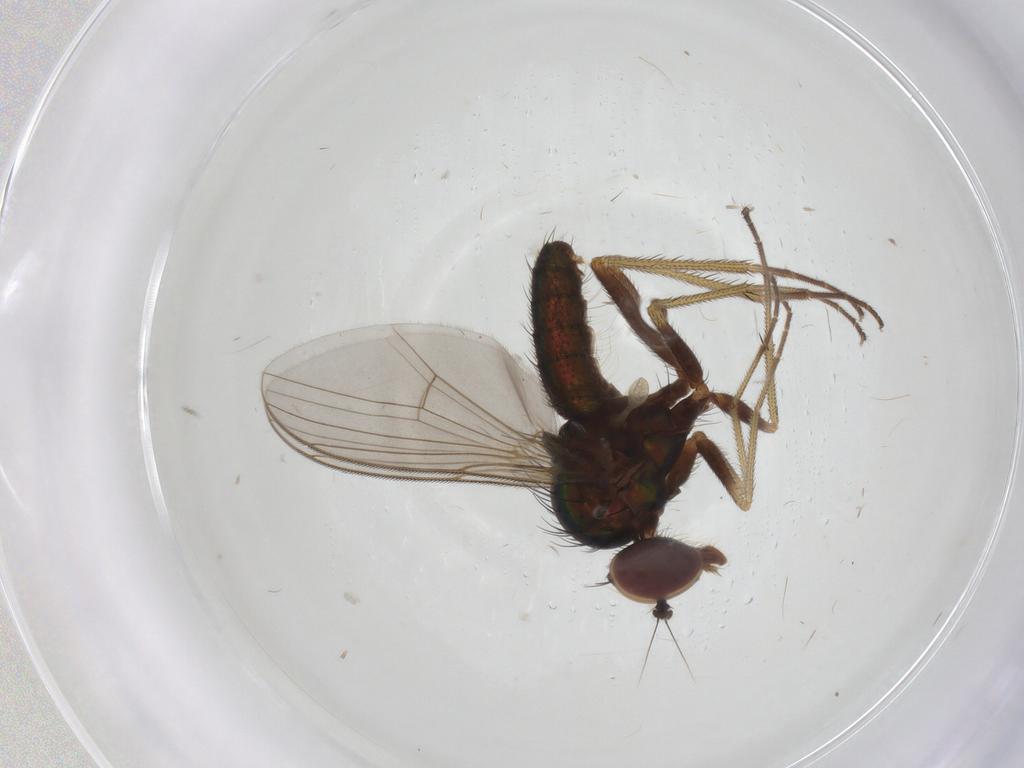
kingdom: Animalia
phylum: Arthropoda
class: Insecta
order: Diptera
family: Dolichopodidae
